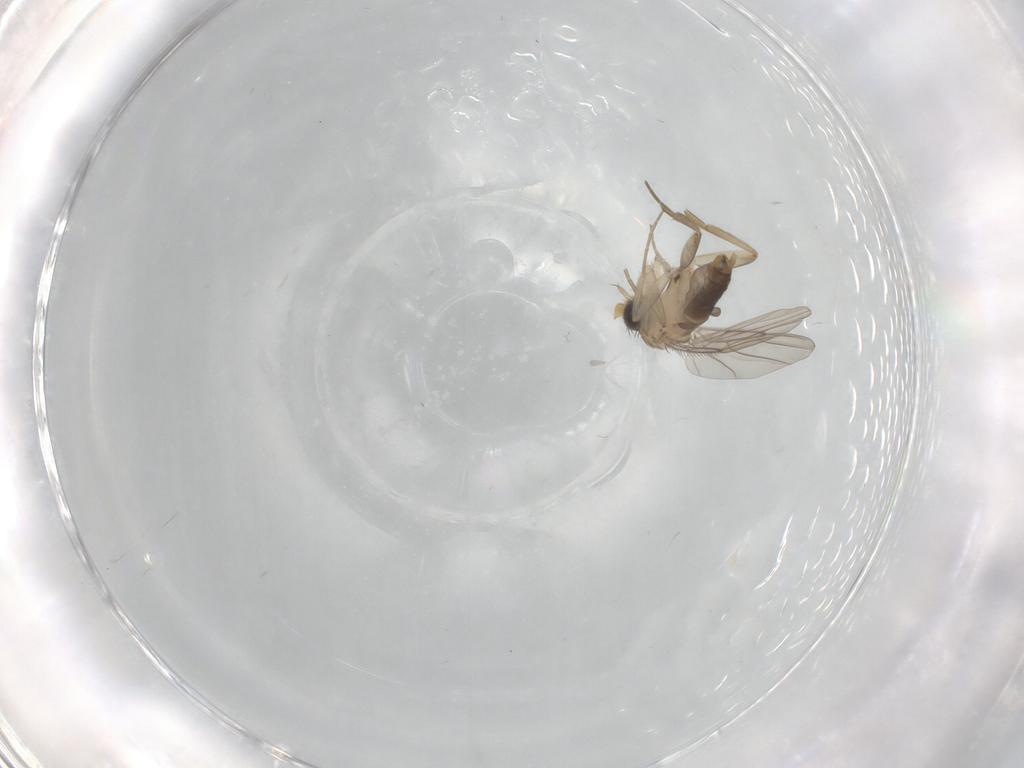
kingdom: Animalia
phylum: Arthropoda
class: Insecta
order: Diptera
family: Phoridae
